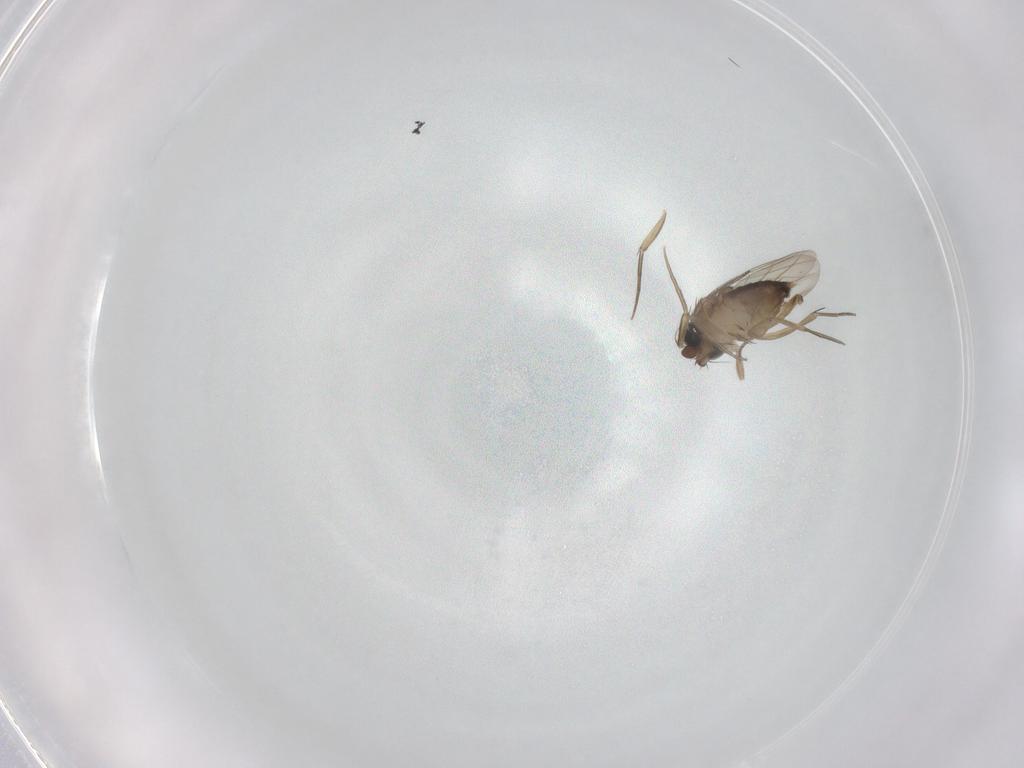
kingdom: Animalia
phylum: Arthropoda
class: Insecta
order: Diptera
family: Phoridae
